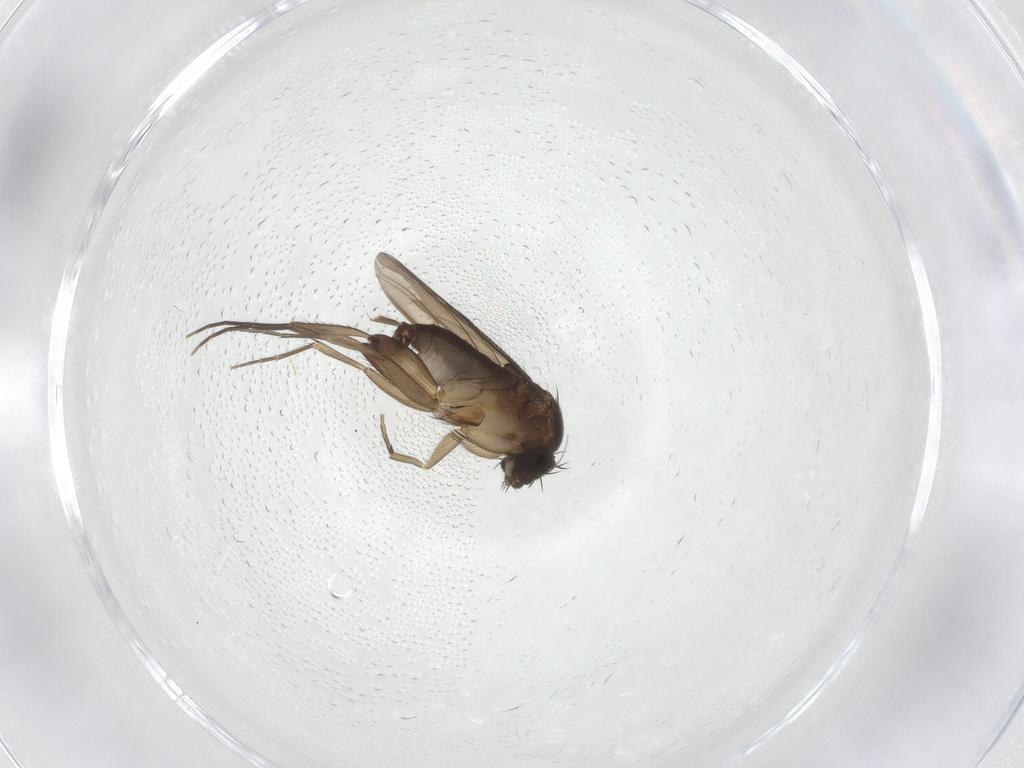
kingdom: Animalia
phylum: Arthropoda
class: Insecta
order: Diptera
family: Phoridae
